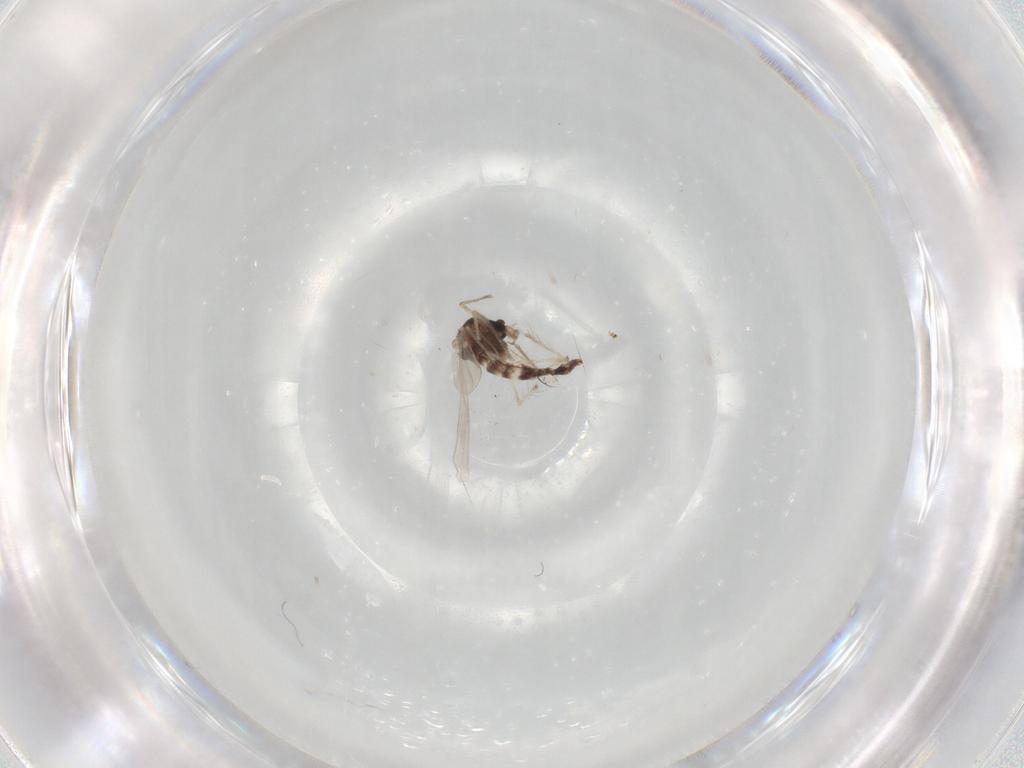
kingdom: Animalia
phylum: Arthropoda
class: Insecta
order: Diptera
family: Chironomidae
